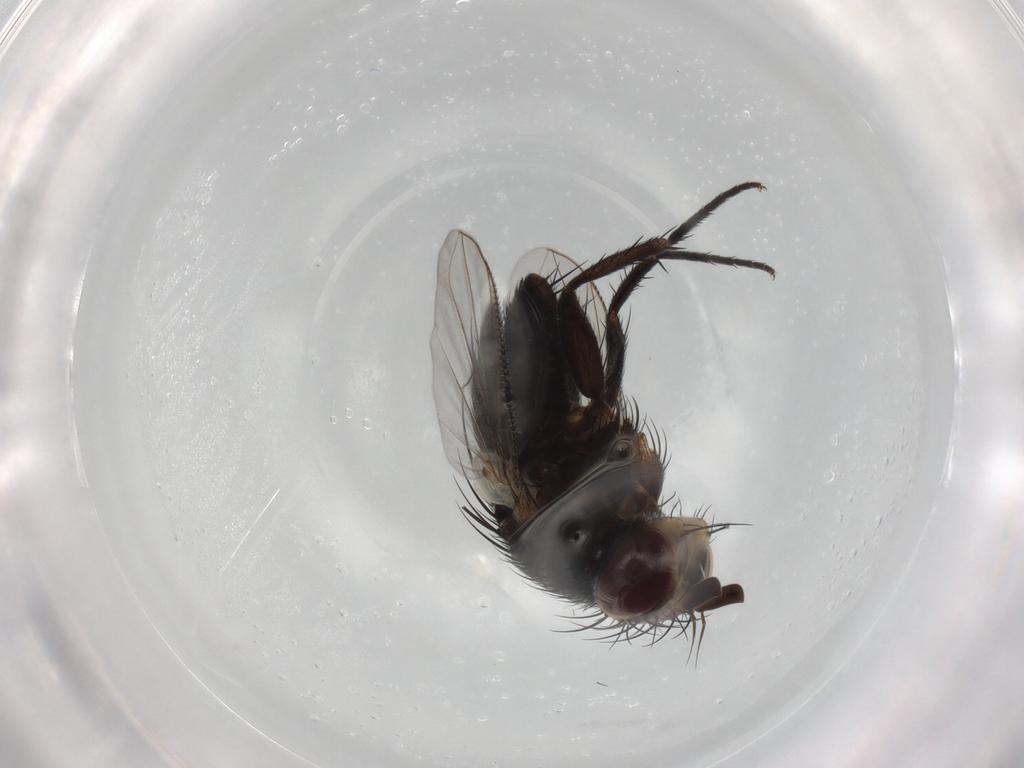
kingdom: Animalia
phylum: Arthropoda
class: Insecta
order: Diptera
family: Tachinidae
